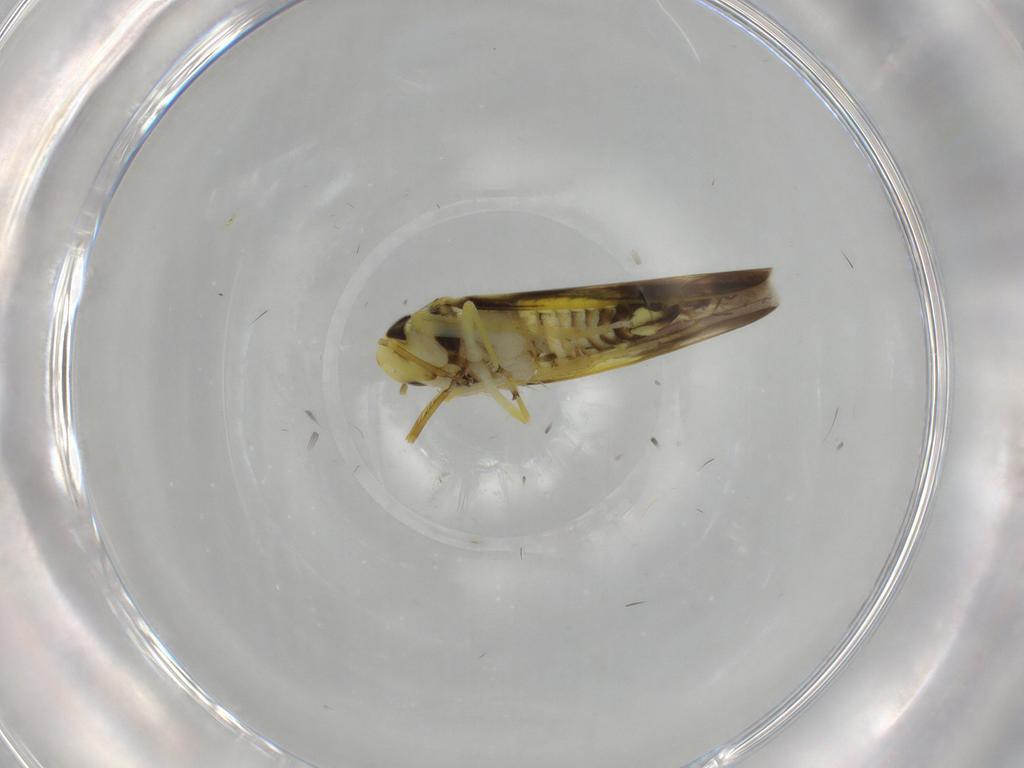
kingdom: Animalia
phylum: Arthropoda
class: Insecta
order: Hemiptera
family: Cicadellidae
